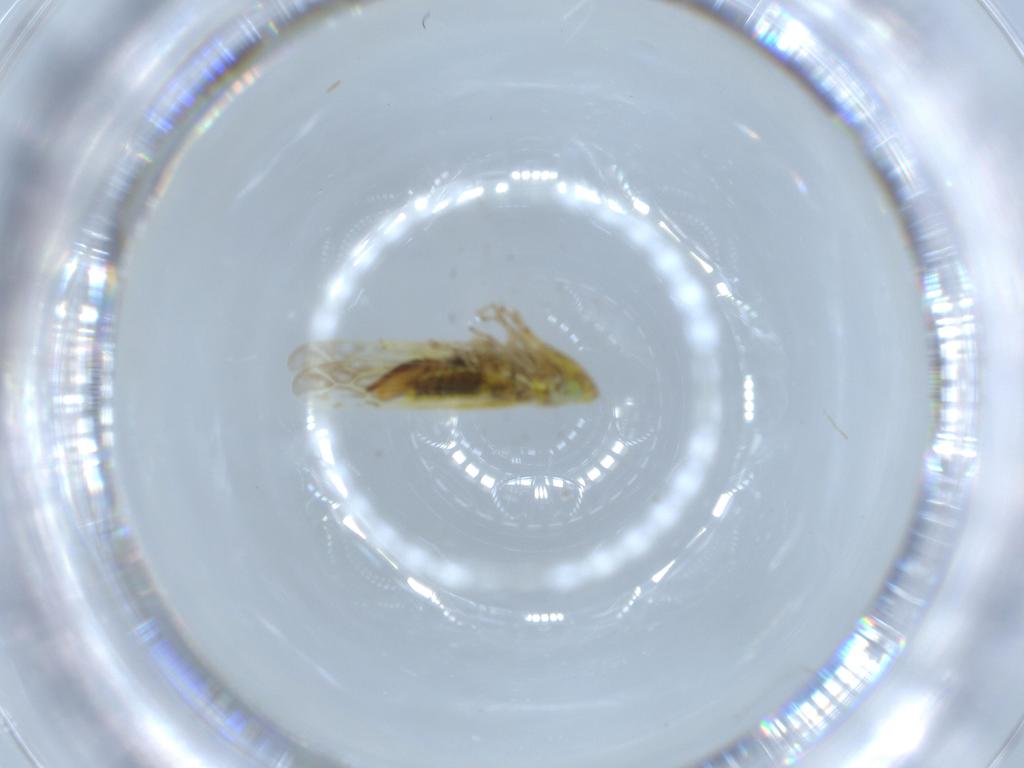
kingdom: Animalia
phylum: Arthropoda
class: Insecta
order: Hemiptera
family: Cicadellidae
